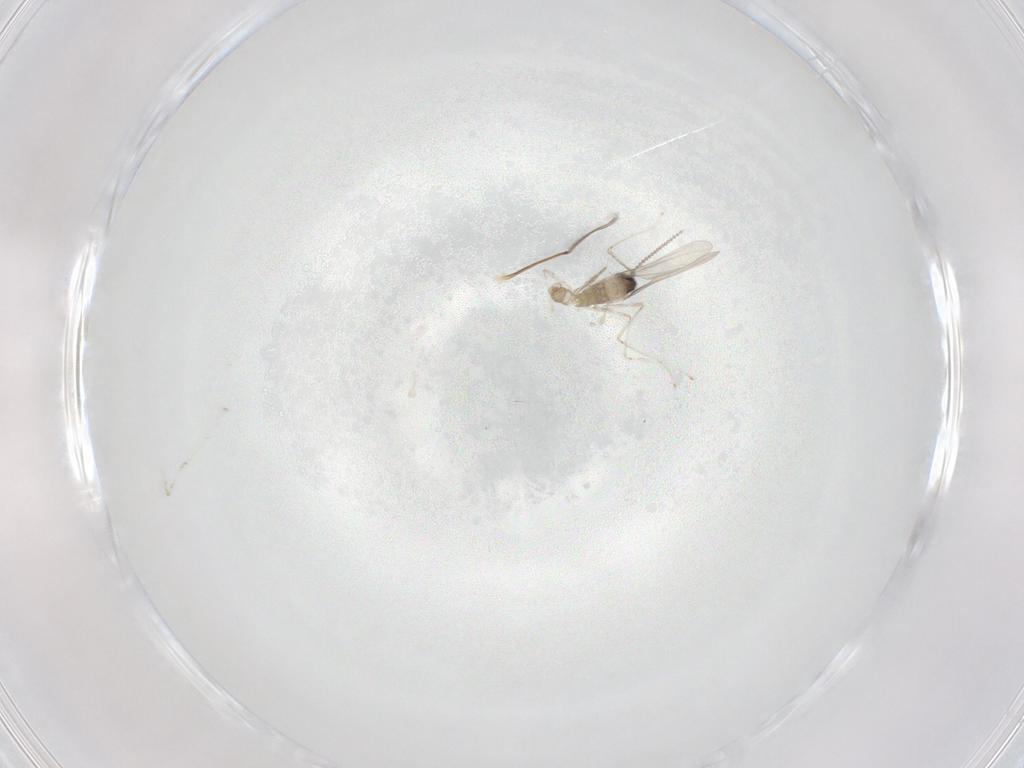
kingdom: Animalia
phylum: Arthropoda
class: Insecta
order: Diptera
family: Cecidomyiidae
